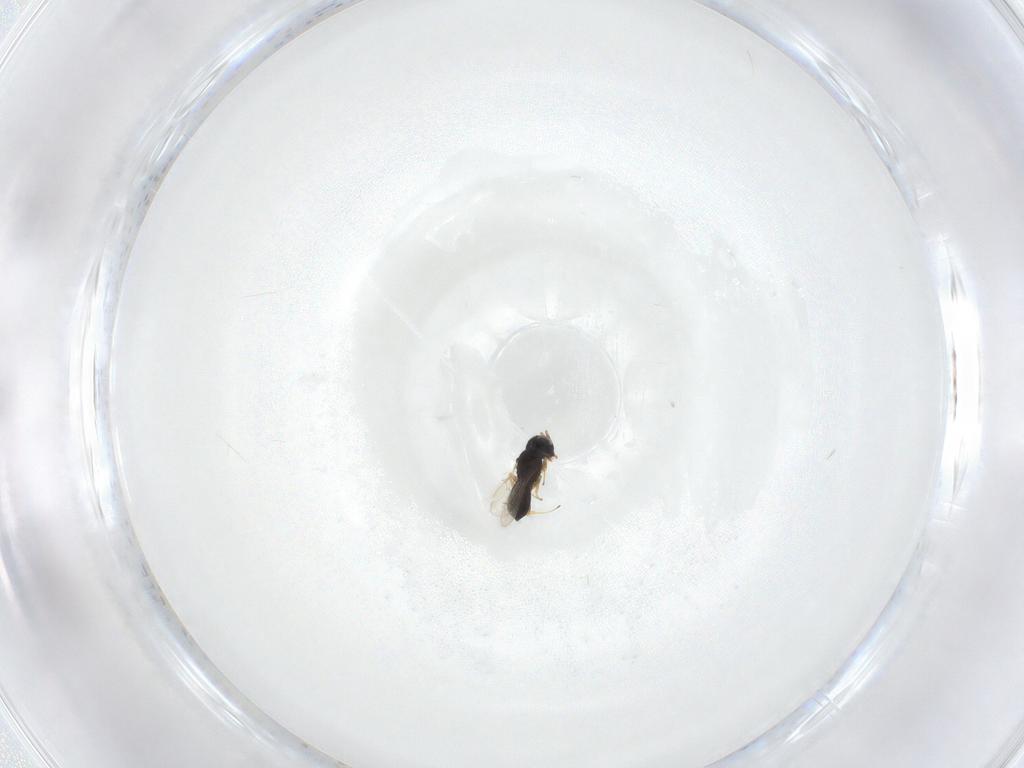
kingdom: Animalia
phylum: Arthropoda
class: Insecta
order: Hymenoptera
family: Scelionidae
